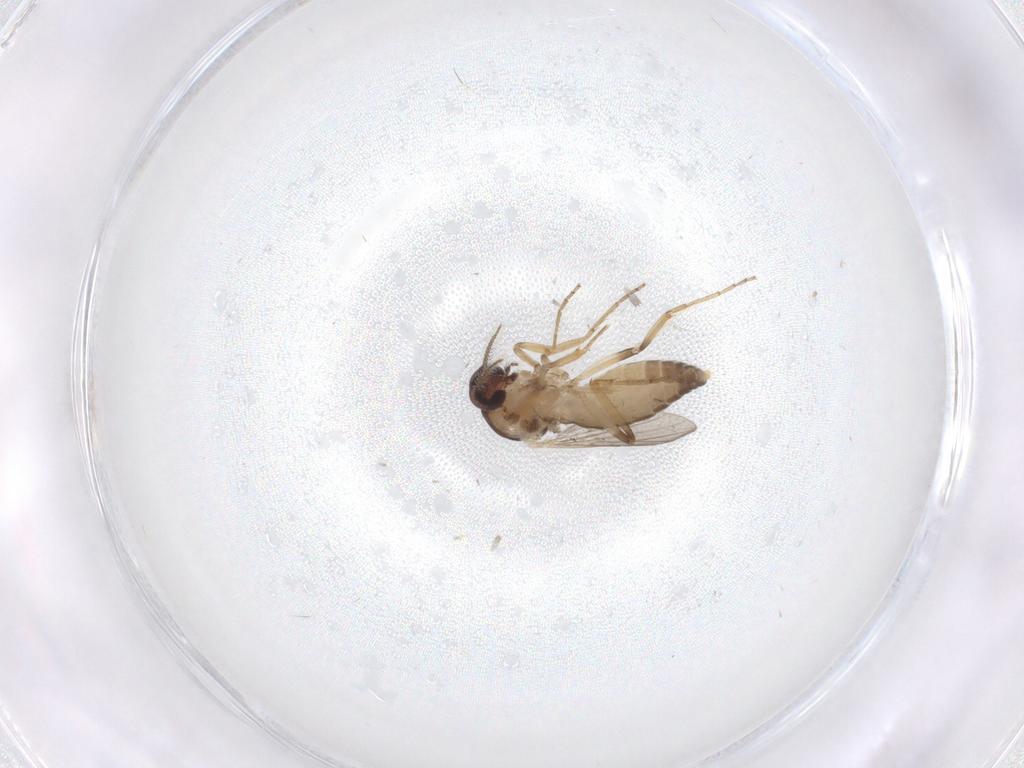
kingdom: Animalia
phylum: Arthropoda
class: Insecta
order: Diptera
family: Ceratopogonidae
